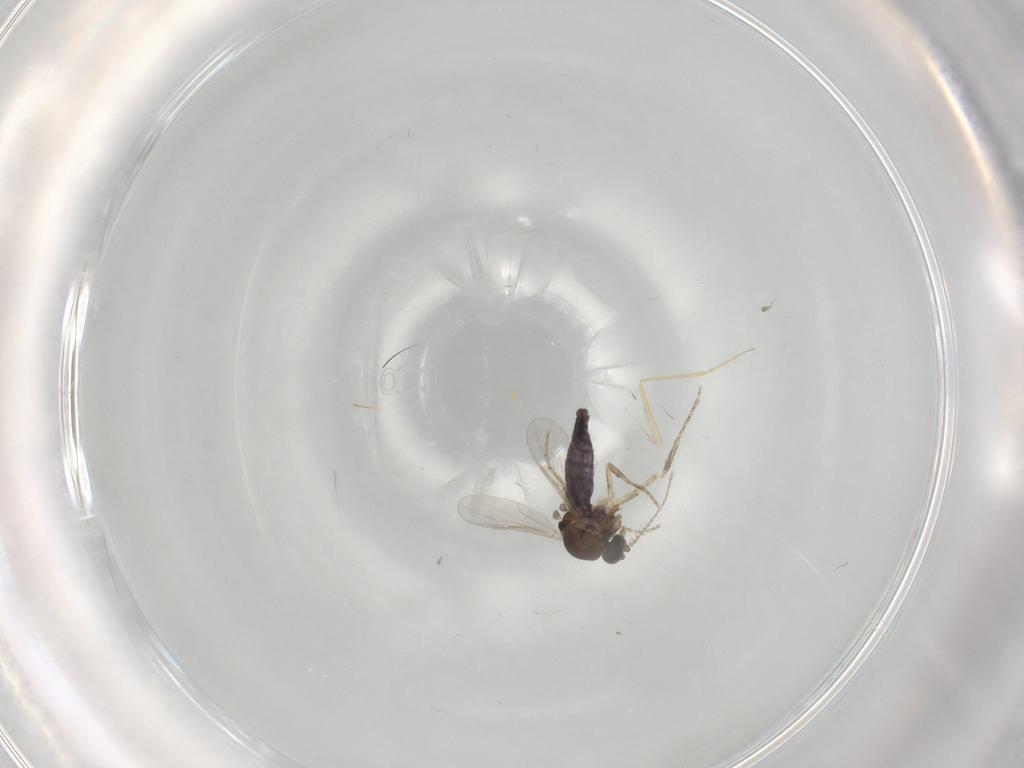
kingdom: Animalia
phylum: Arthropoda
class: Insecta
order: Diptera
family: Ceratopogonidae
